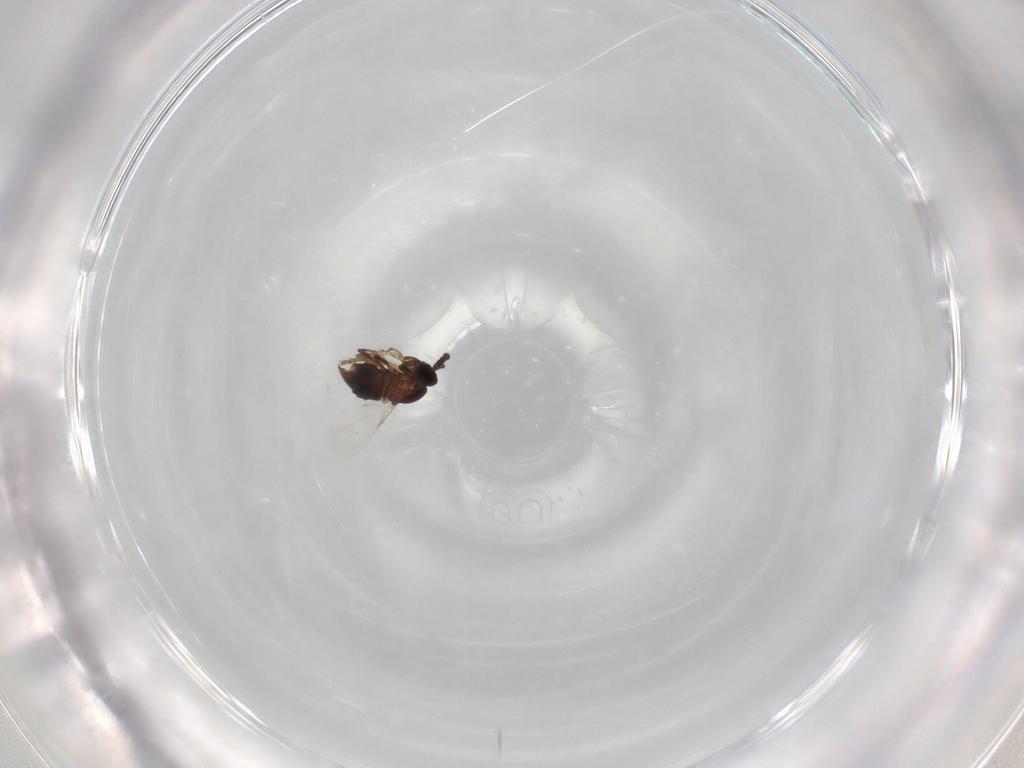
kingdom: Animalia
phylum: Arthropoda
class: Insecta
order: Diptera
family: Scatopsidae
